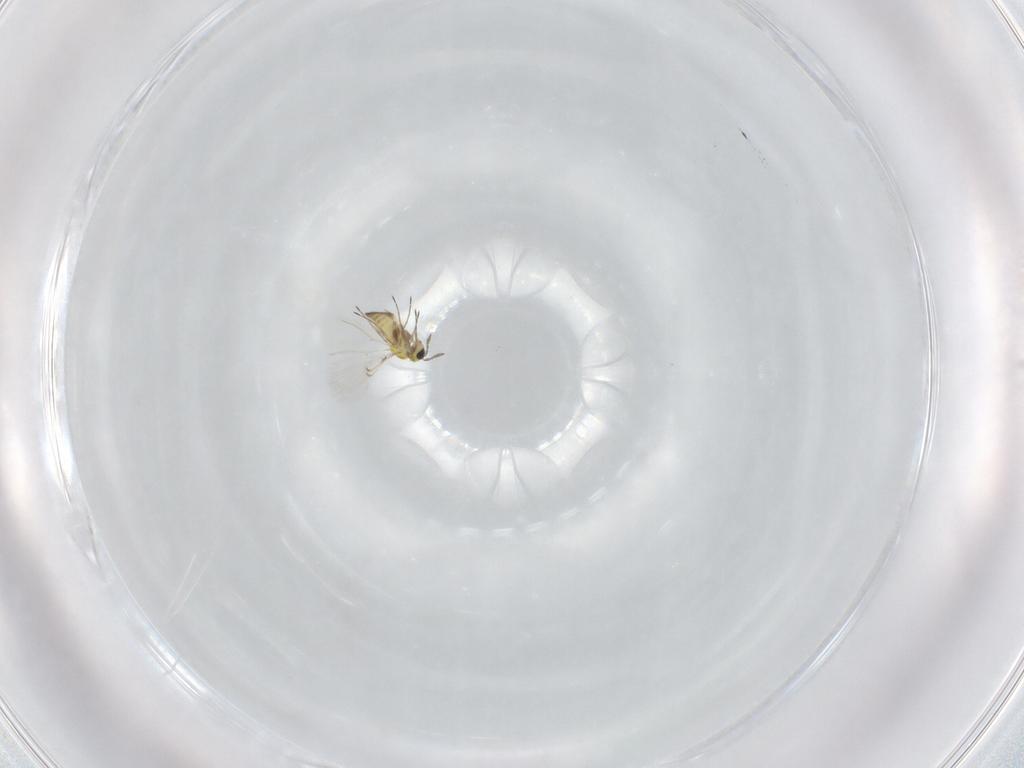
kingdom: Animalia
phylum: Arthropoda
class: Insecta
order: Hymenoptera
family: Trichogrammatidae
